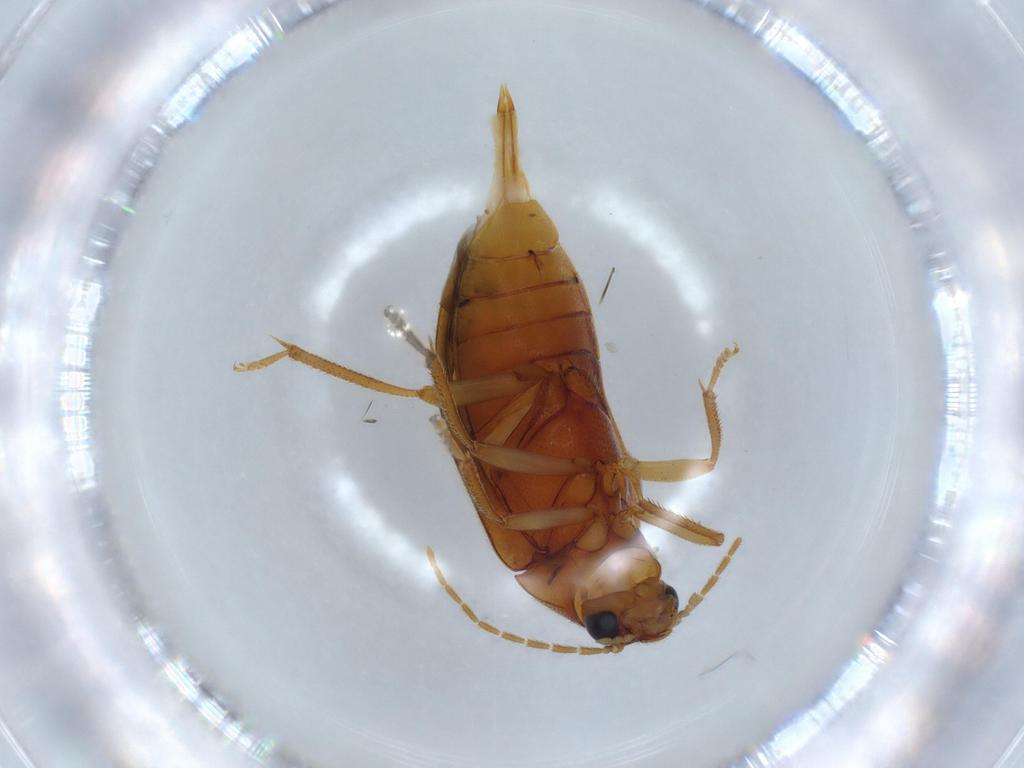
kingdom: Animalia
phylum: Arthropoda
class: Insecta
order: Coleoptera
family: Ptilodactylidae
